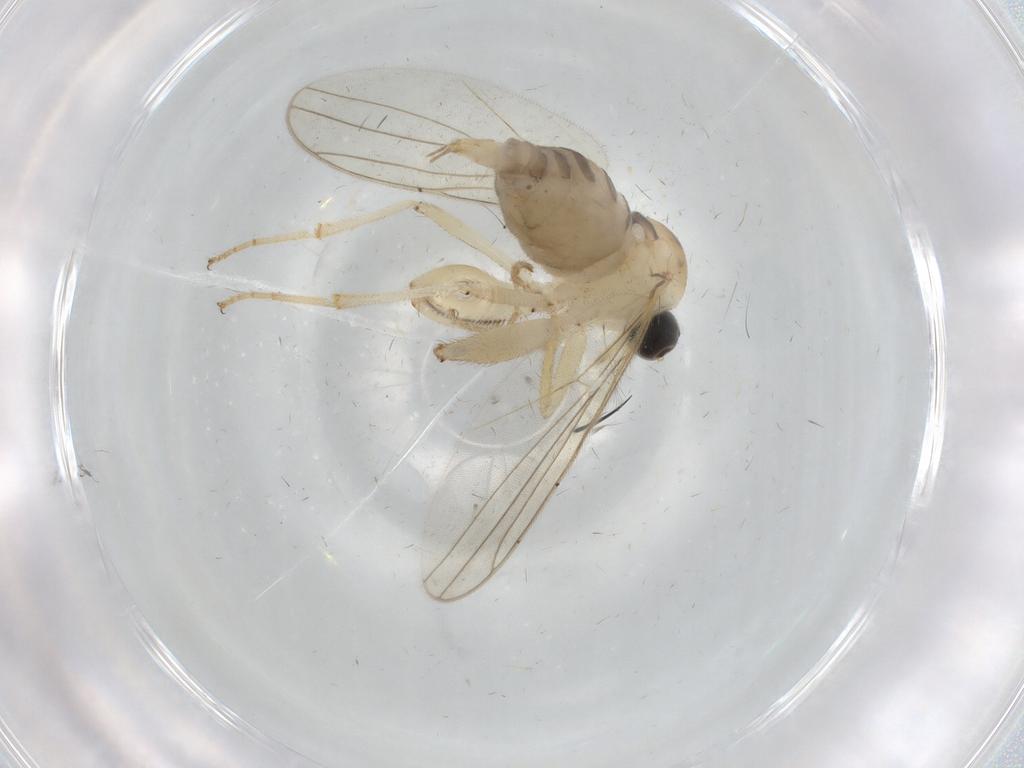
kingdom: Animalia
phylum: Arthropoda
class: Insecta
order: Diptera
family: Hybotidae
